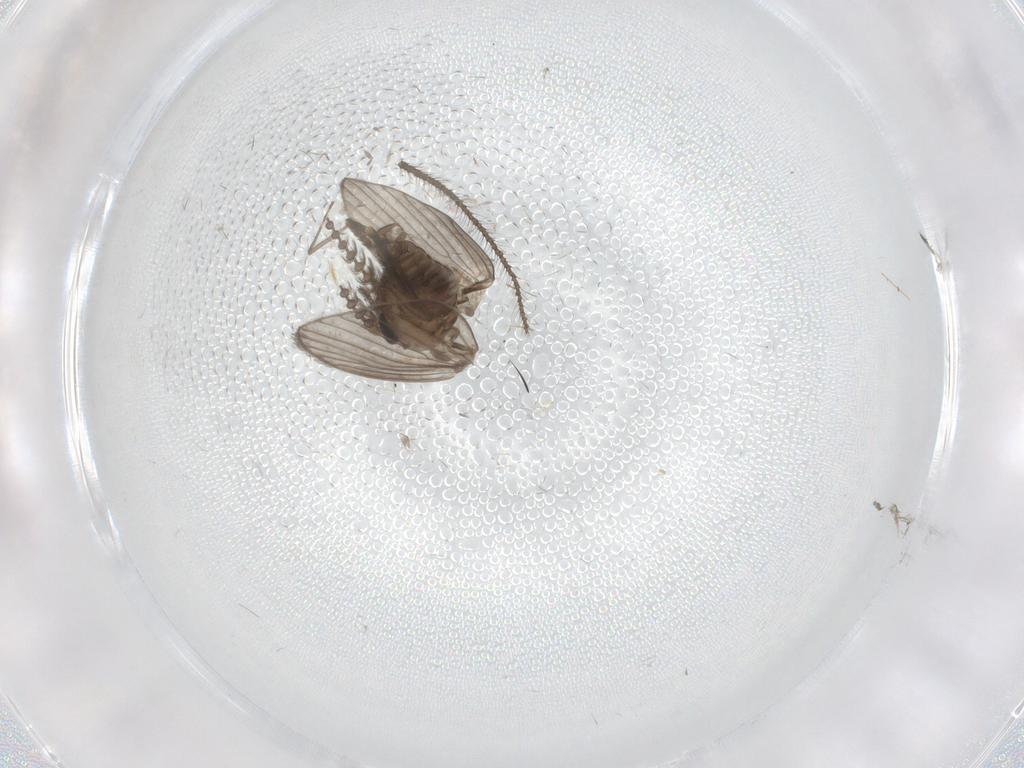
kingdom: Animalia
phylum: Arthropoda
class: Insecta
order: Diptera
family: Psychodidae
